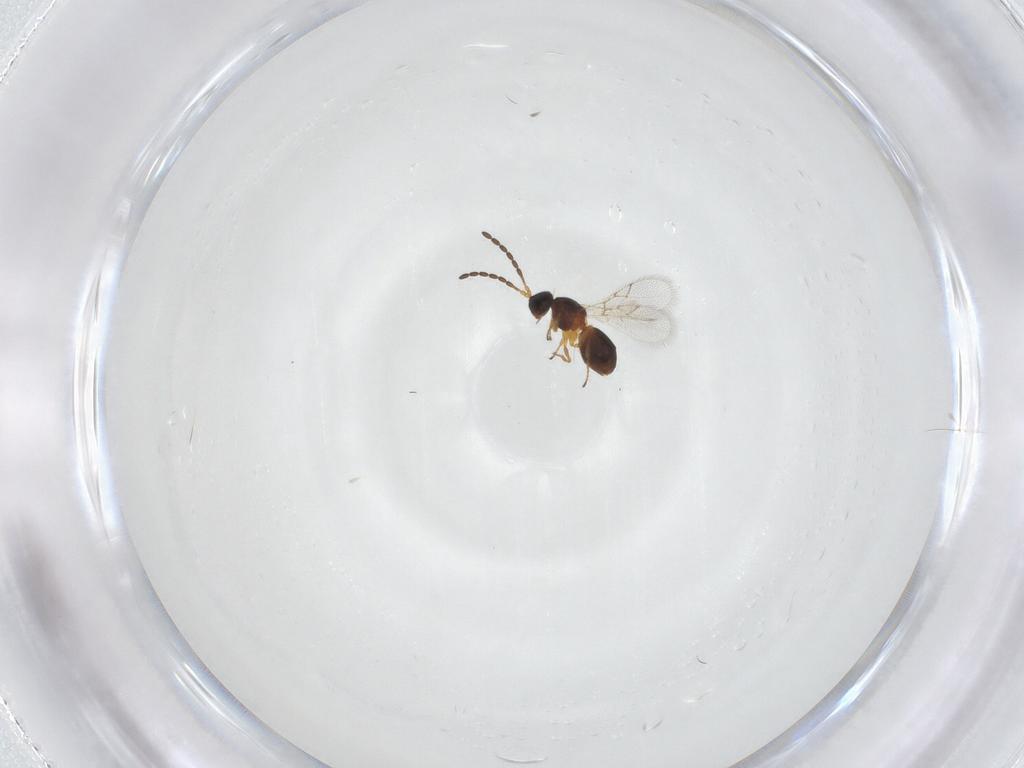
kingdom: Animalia
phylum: Arthropoda
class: Insecta
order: Hymenoptera
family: Figitidae
